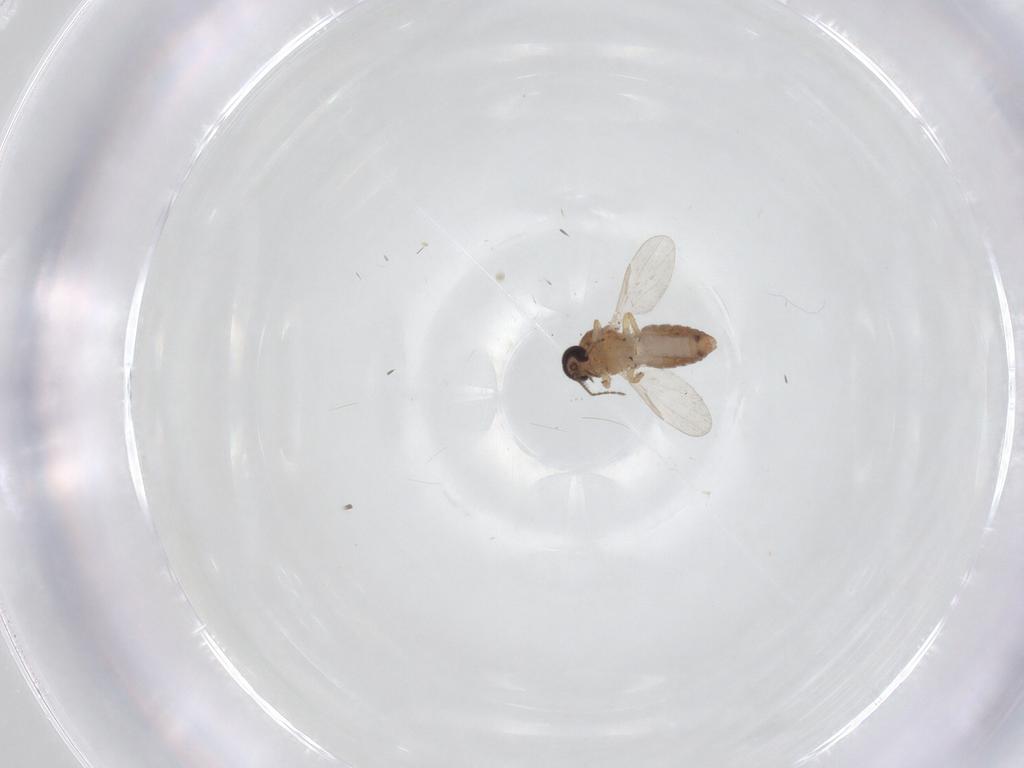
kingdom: Animalia
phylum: Arthropoda
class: Insecta
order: Diptera
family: Ceratopogonidae
